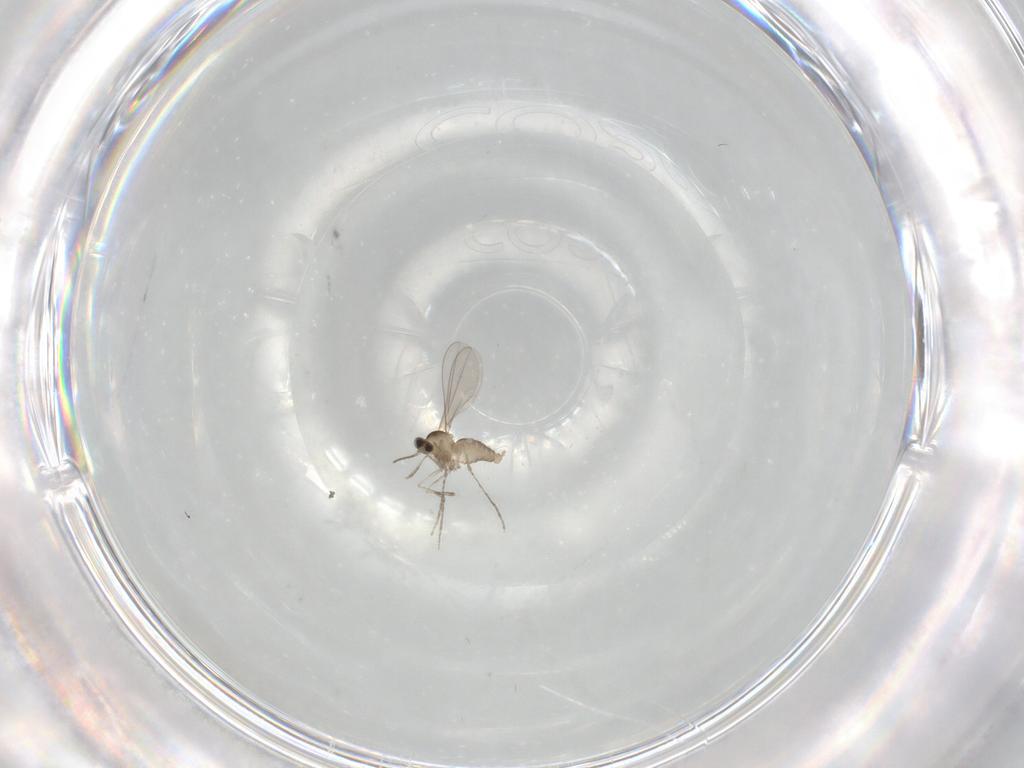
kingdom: Animalia
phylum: Arthropoda
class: Insecta
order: Diptera
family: Cecidomyiidae
